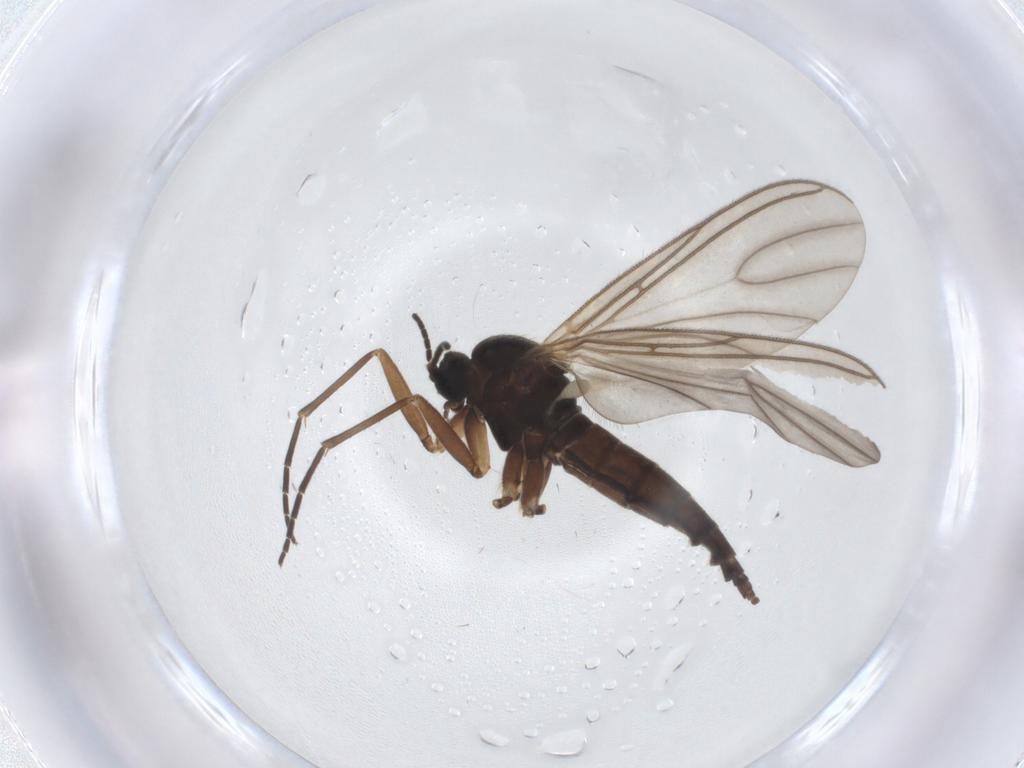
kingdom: Animalia
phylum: Arthropoda
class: Insecta
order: Diptera
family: Sciaridae
